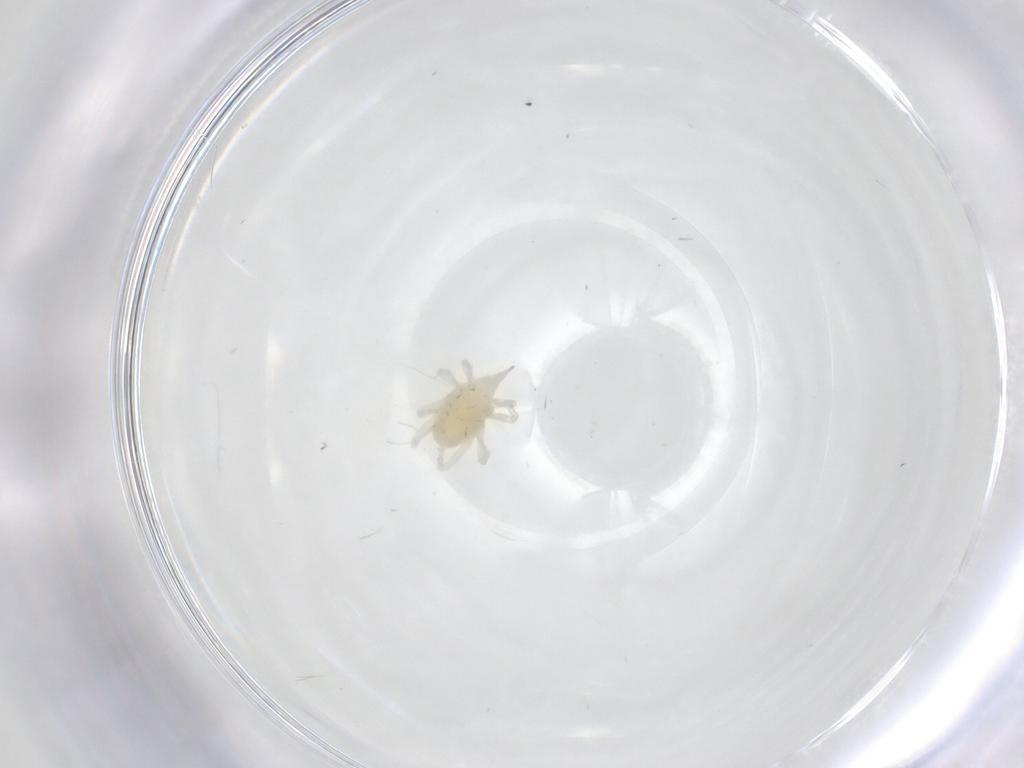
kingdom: Animalia
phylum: Arthropoda
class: Arachnida
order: Trombidiformes
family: Bdellidae
